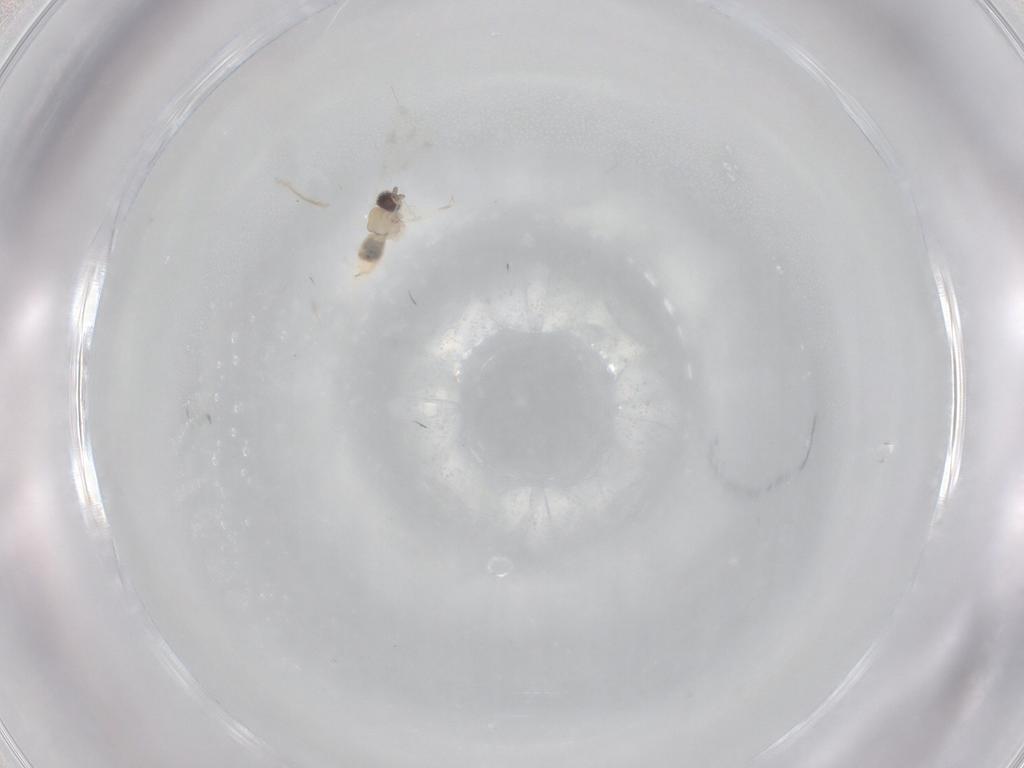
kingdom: Animalia
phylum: Arthropoda
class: Insecta
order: Diptera
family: Cecidomyiidae
